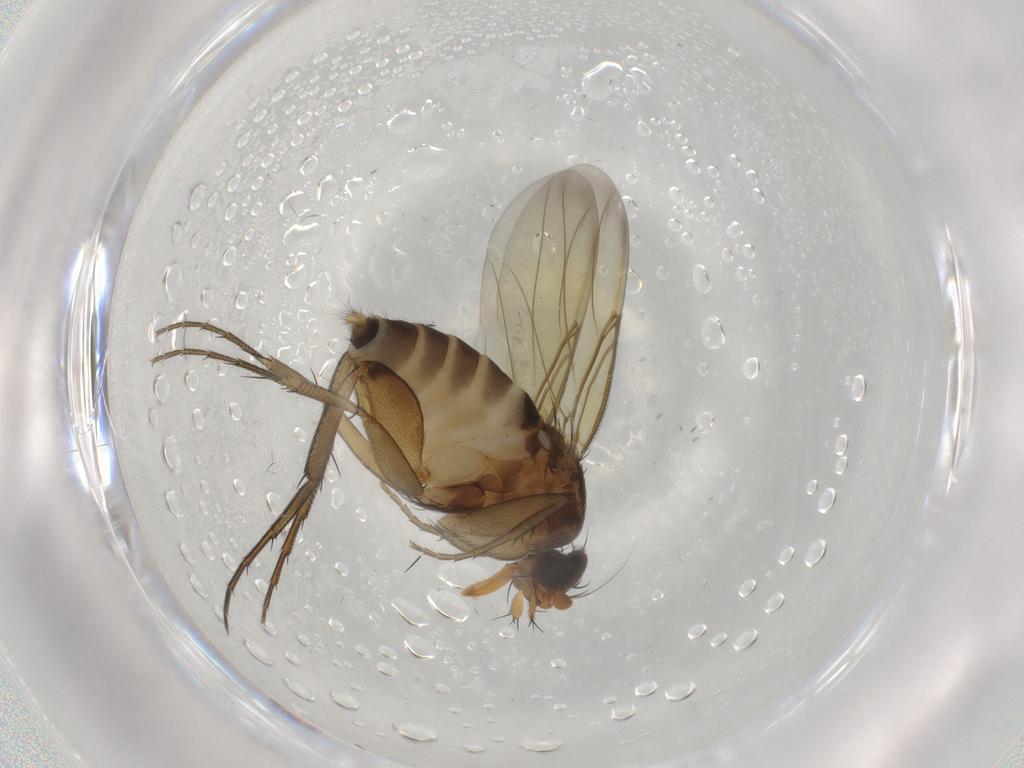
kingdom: Animalia
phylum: Arthropoda
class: Insecta
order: Diptera
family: Phoridae
